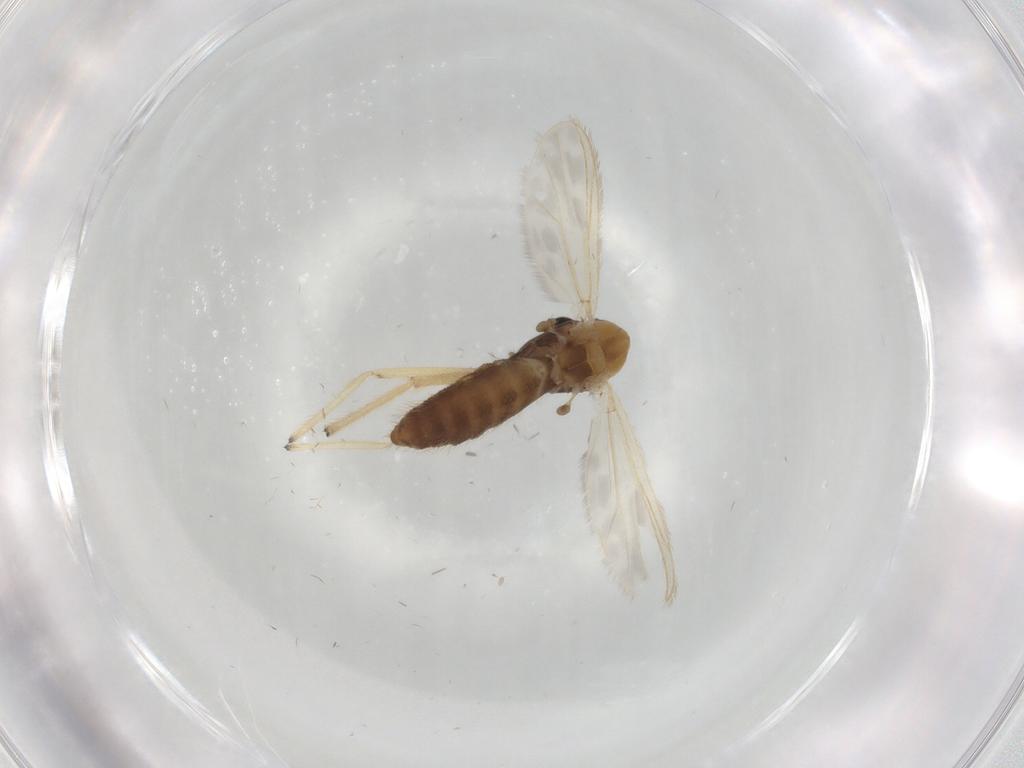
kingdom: Animalia
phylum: Arthropoda
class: Insecta
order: Diptera
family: Chironomidae
